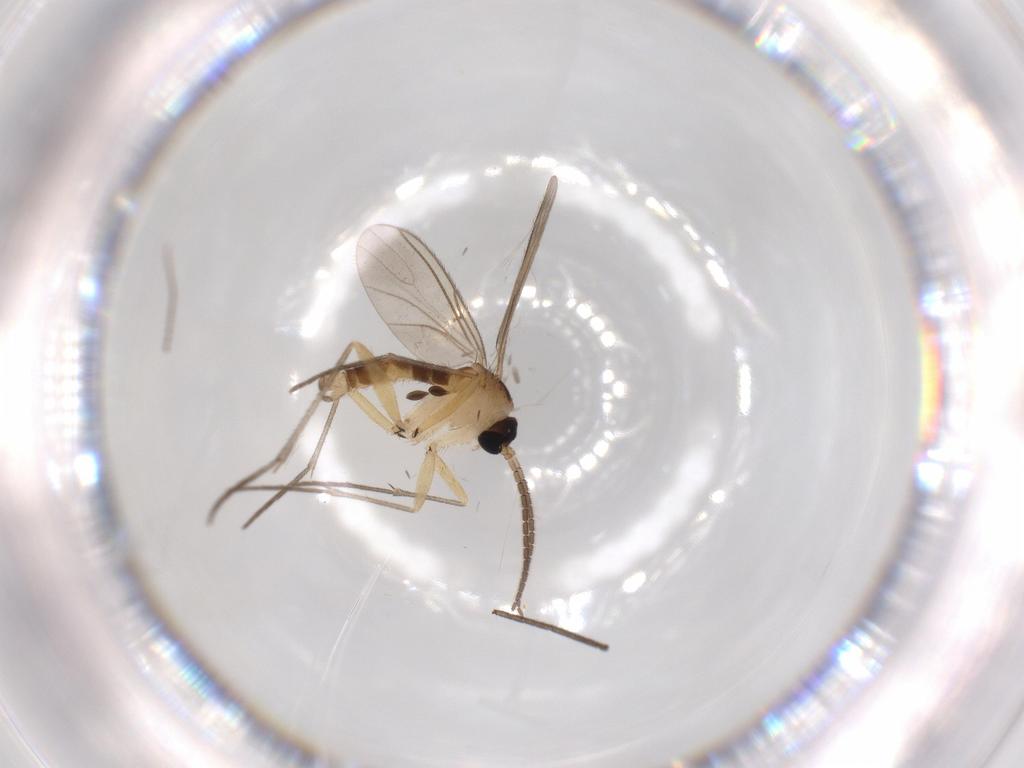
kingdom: Animalia
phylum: Arthropoda
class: Insecta
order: Diptera
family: Sciaridae
